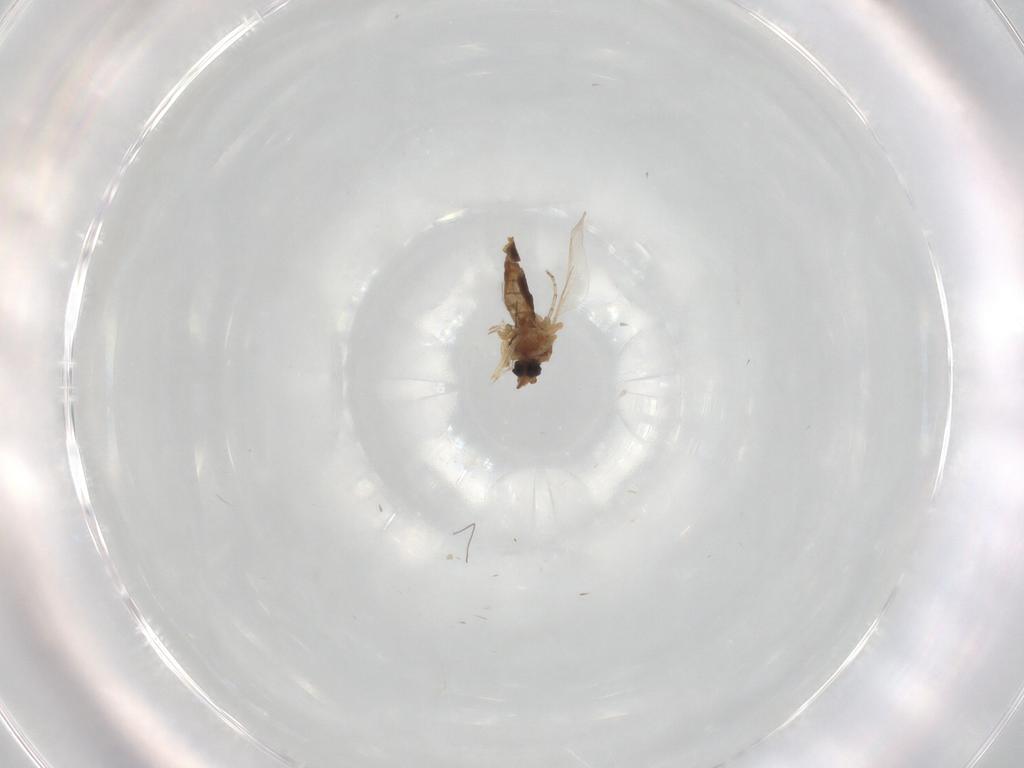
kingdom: Animalia
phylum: Arthropoda
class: Insecta
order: Diptera
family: Ceratopogonidae
